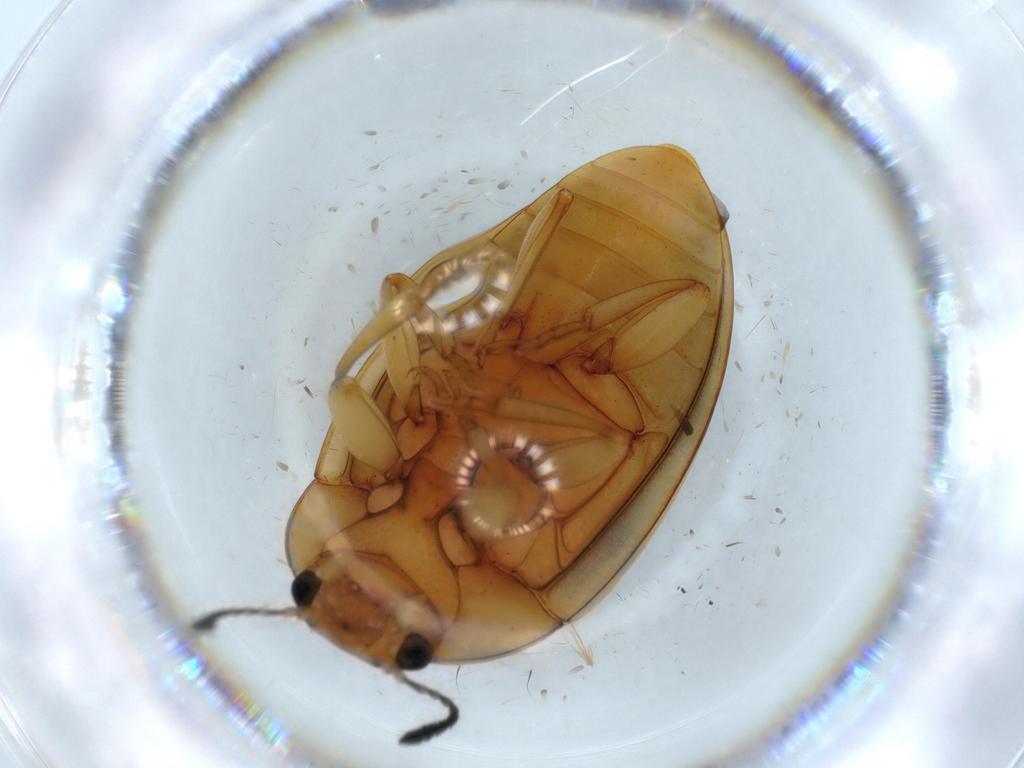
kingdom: Animalia
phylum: Arthropoda
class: Insecta
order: Coleoptera
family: Erotylidae
